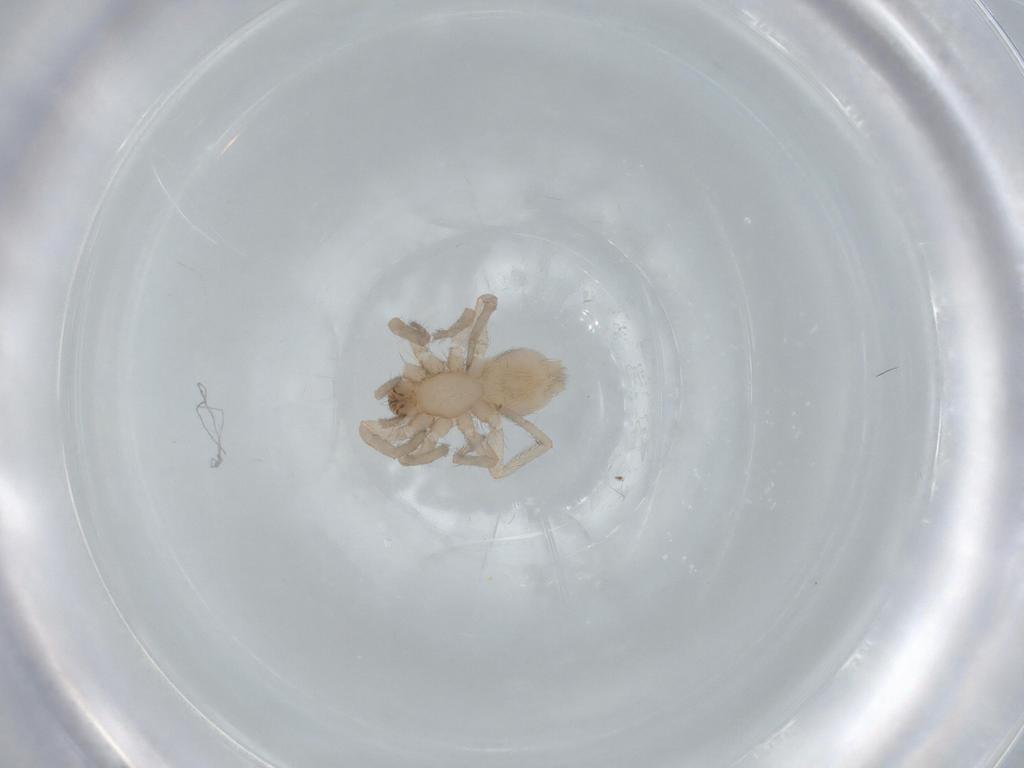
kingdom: Animalia
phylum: Arthropoda
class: Arachnida
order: Araneae
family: Gnaphosidae
